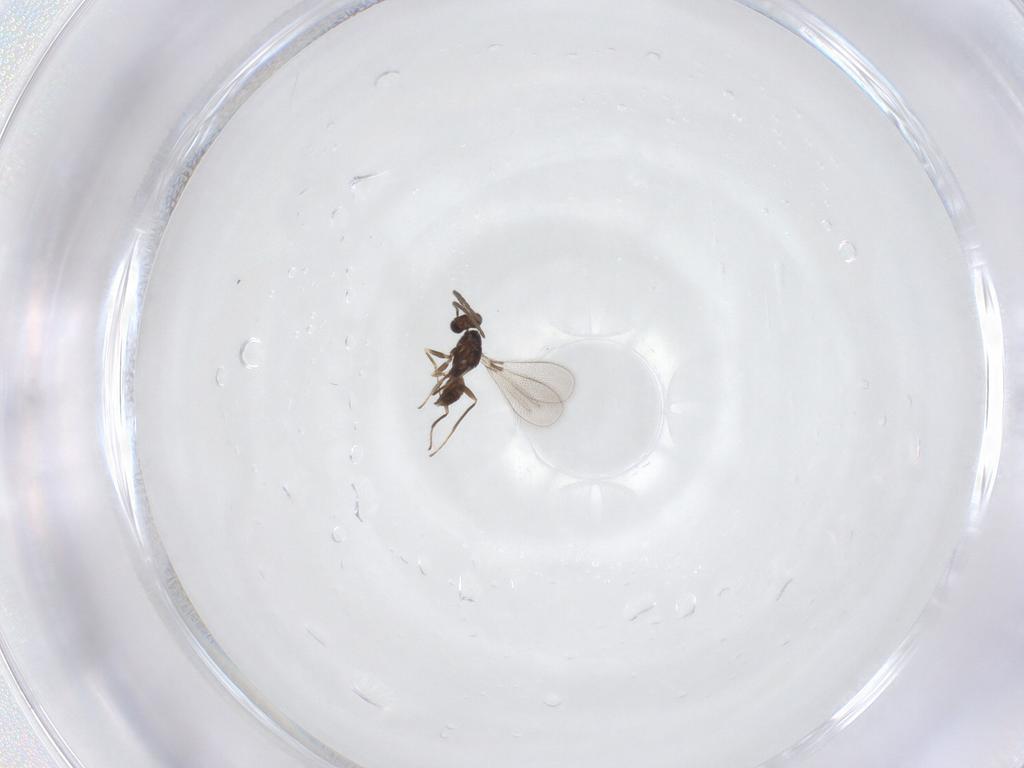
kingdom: Animalia
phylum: Arthropoda
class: Insecta
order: Hymenoptera
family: Mymaridae
